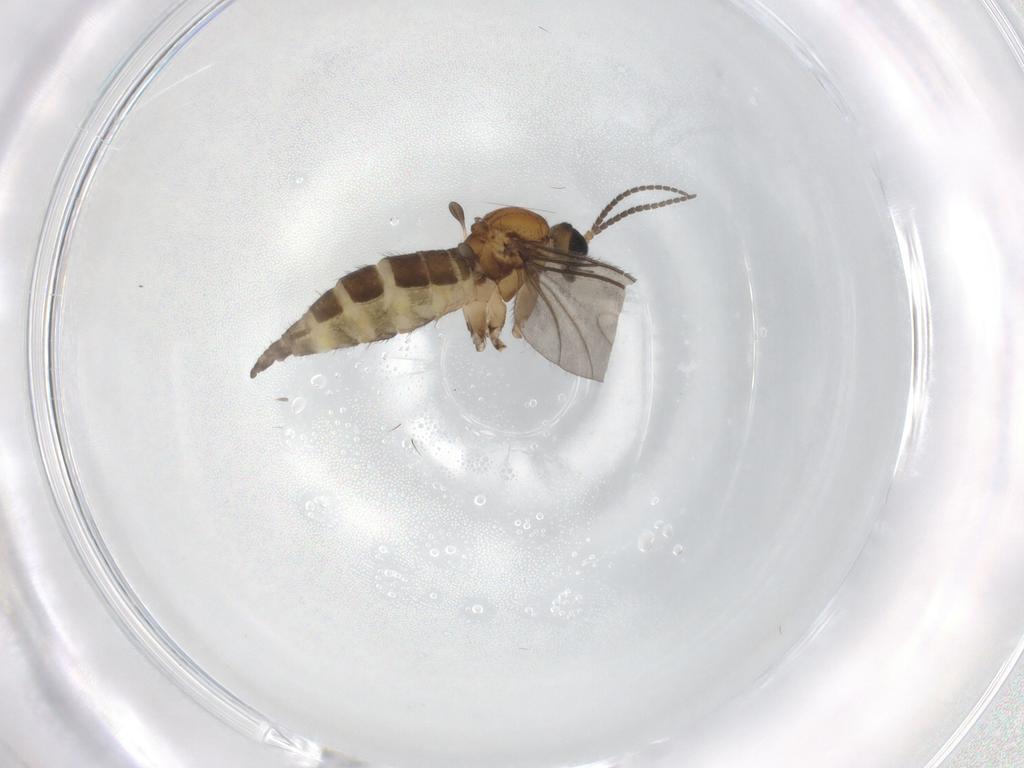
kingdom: Animalia
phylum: Arthropoda
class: Insecta
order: Diptera
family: Sciaridae
